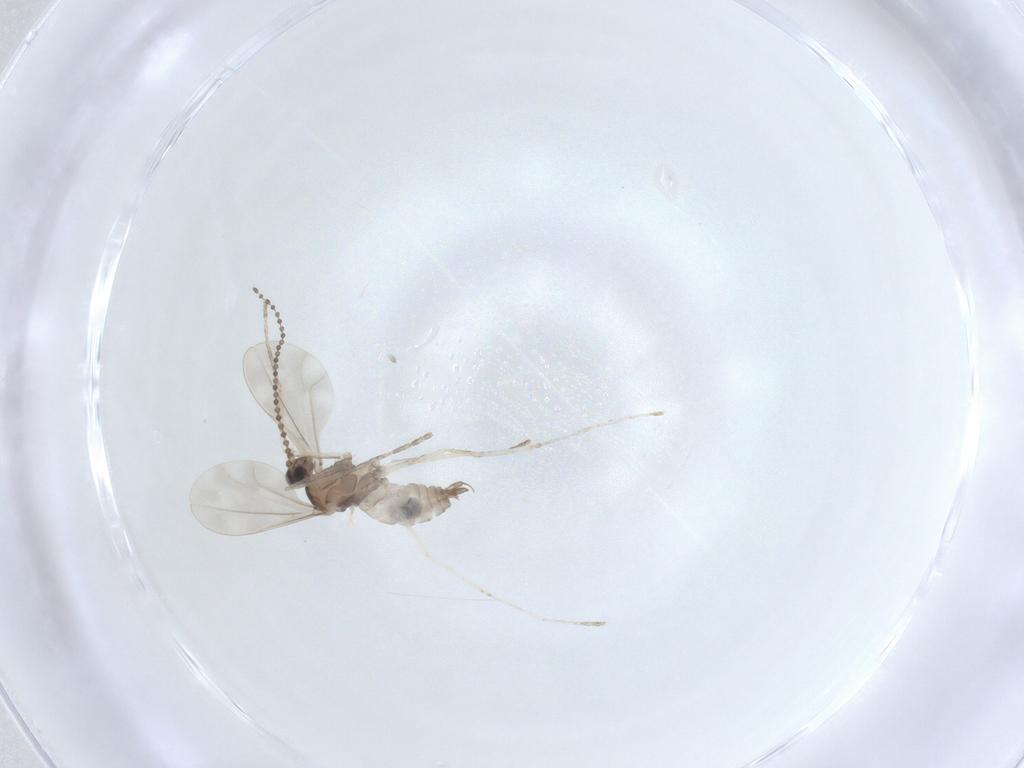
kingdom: Animalia
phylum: Arthropoda
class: Insecta
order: Diptera
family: Cecidomyiidae
